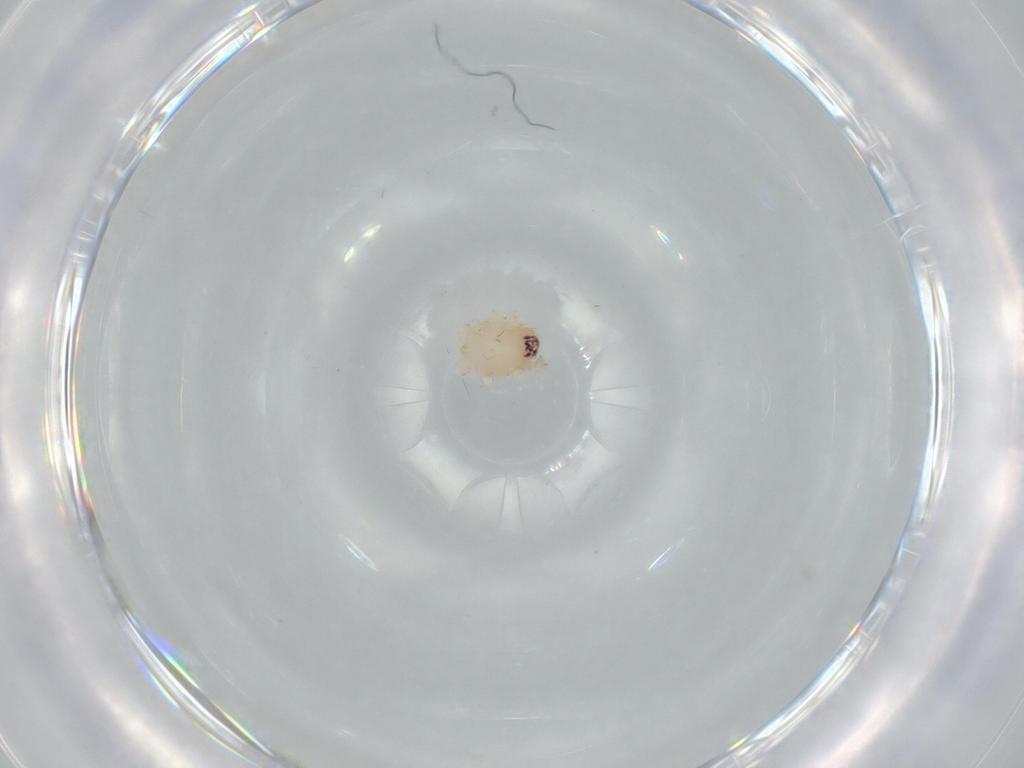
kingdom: Animalia
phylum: Arthropoda
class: Arachnida
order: Araneae
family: Oonopidae
